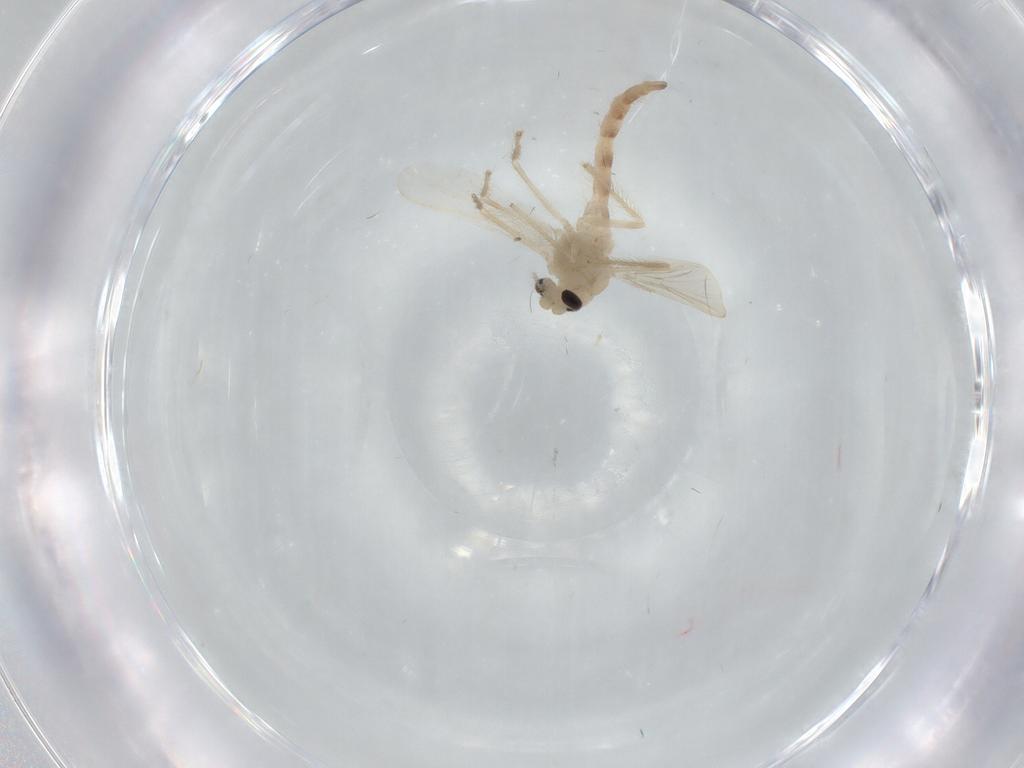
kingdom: Animalia
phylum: Arthropoda
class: Insecta
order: Diptera
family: Chironomidae
